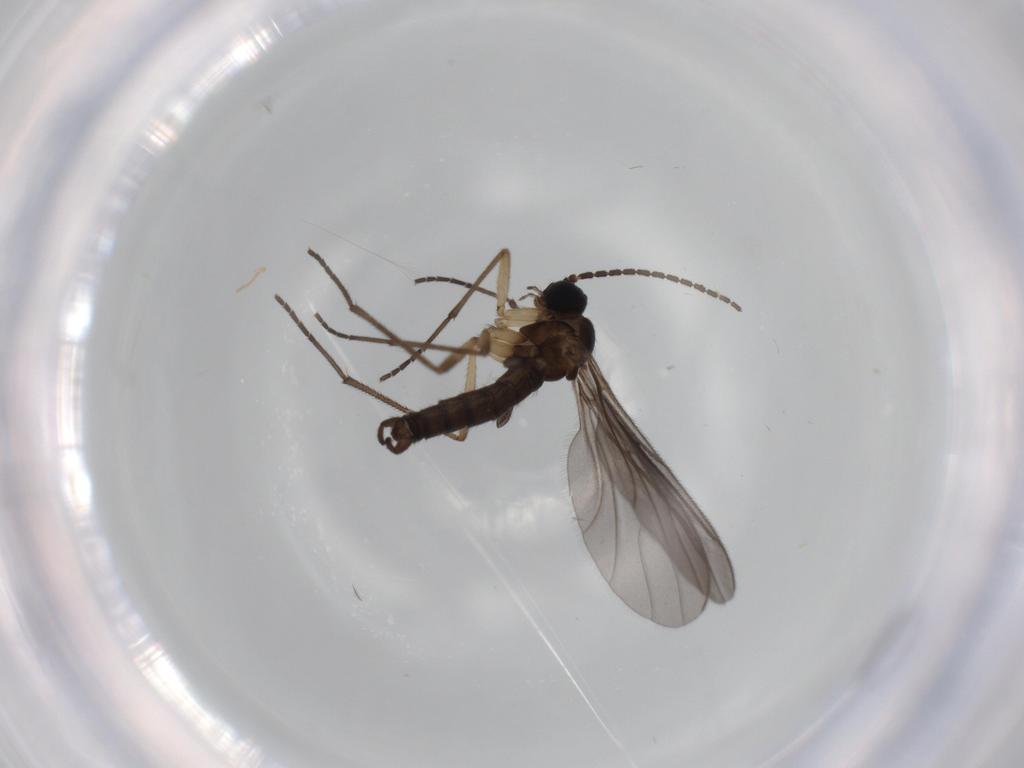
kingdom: Animalia
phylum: Arthropoda
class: Insecta
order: Diptera
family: Sciaridae
